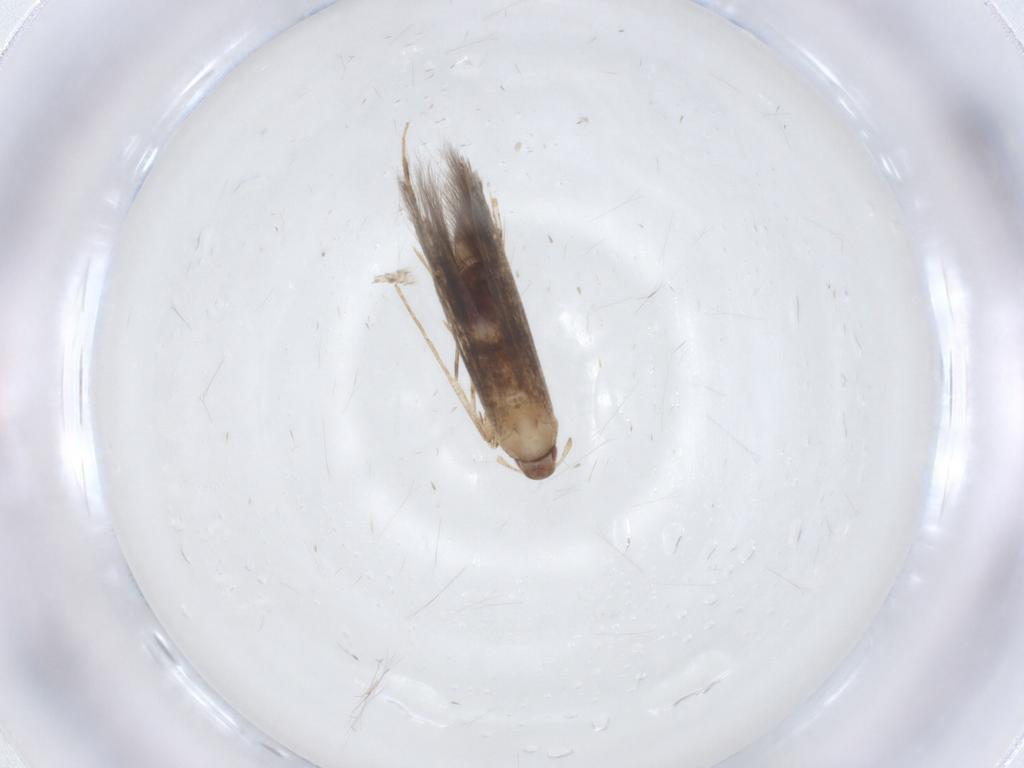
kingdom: Animalia
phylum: Arthropoda
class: Insecta
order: Lepidoptera
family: Cosmopterigidae
